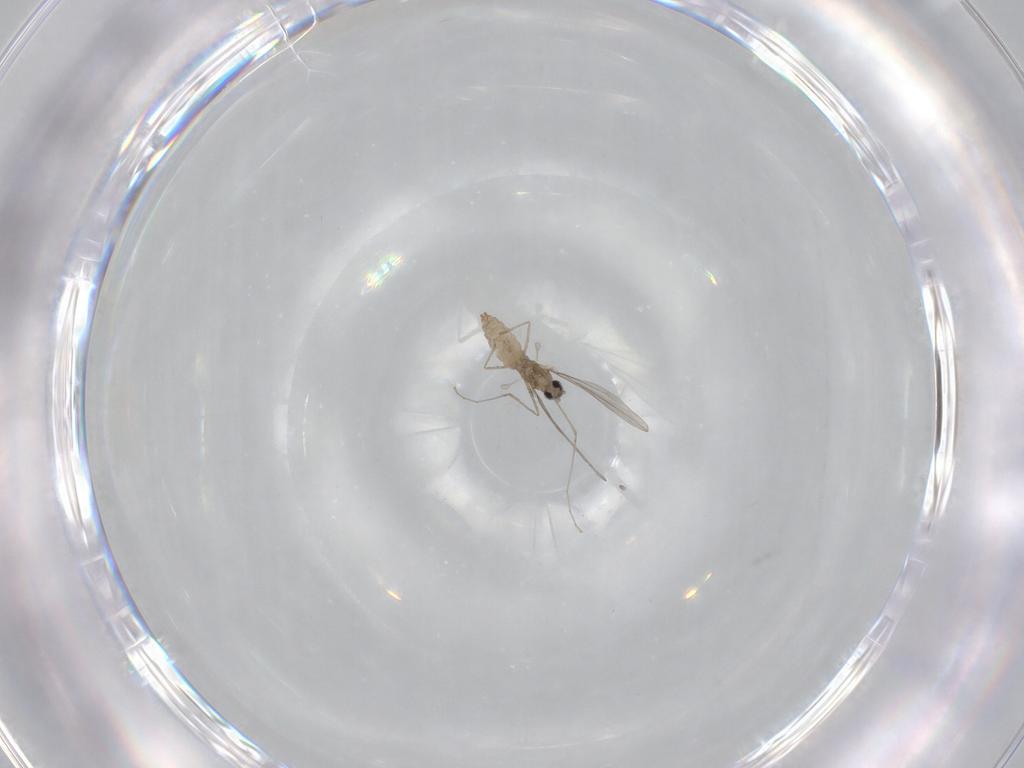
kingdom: Animalia
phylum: Arthropoda
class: Insecta
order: Diptera
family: Cecidomyiidae
